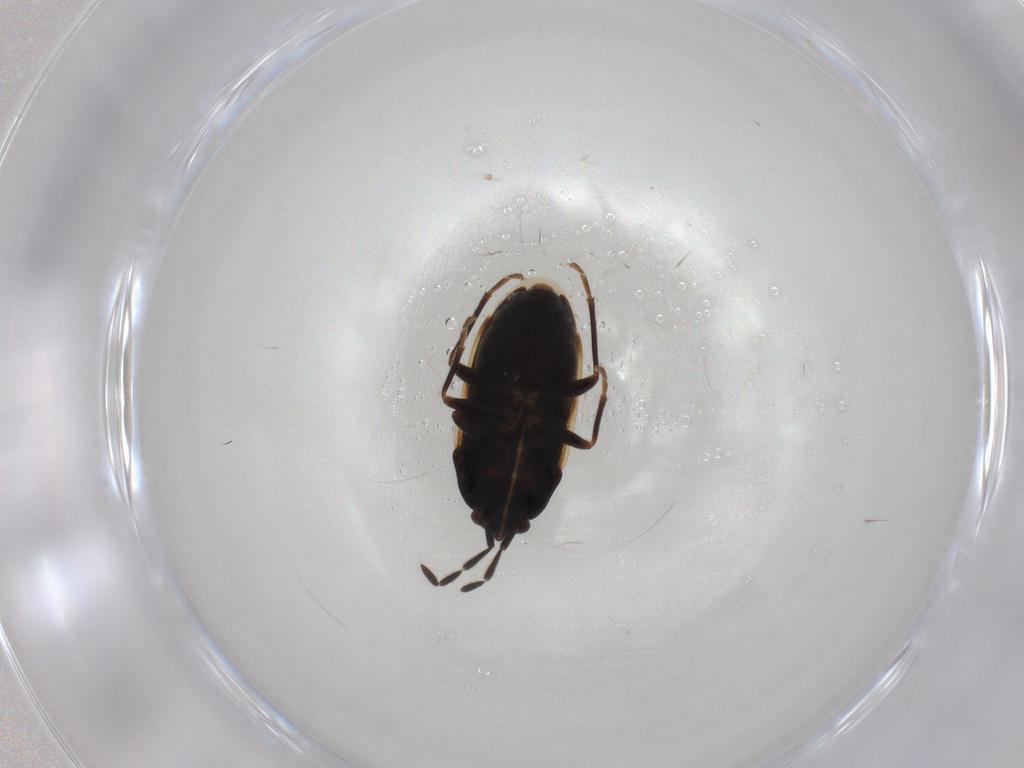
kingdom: Animalia
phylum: Arthropoda
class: Insecta
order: Hemiptera
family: Rhyparochromidae
